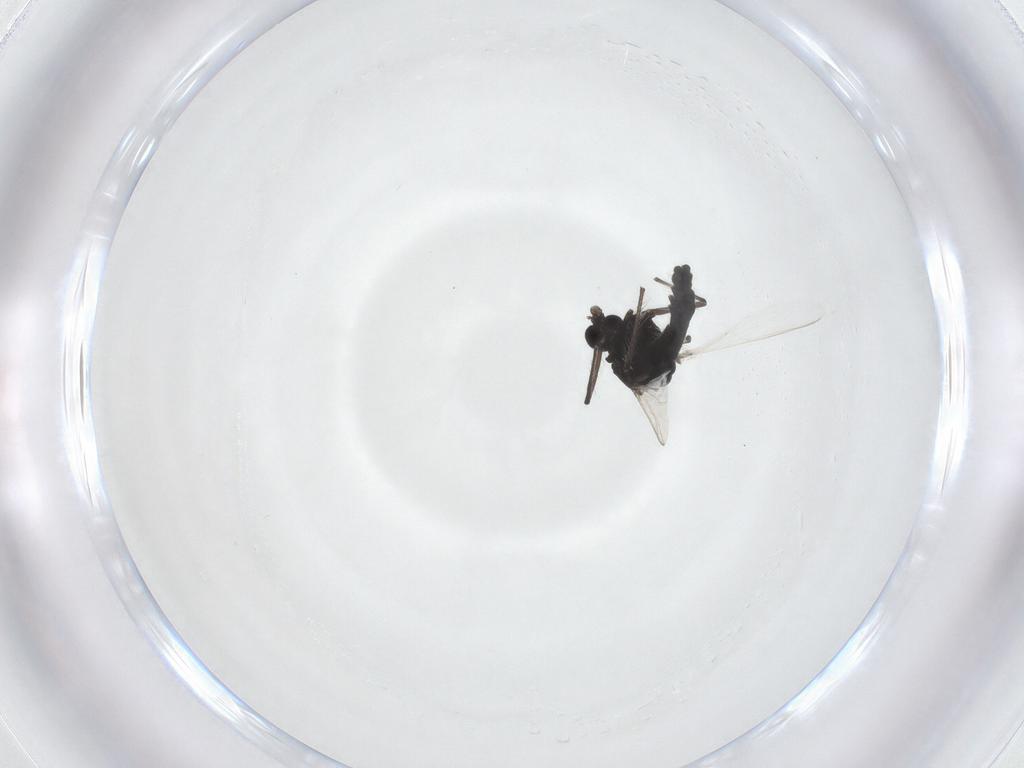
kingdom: Animalia
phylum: Arthropoda
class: Insecta
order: Diptera
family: Chironomidae
